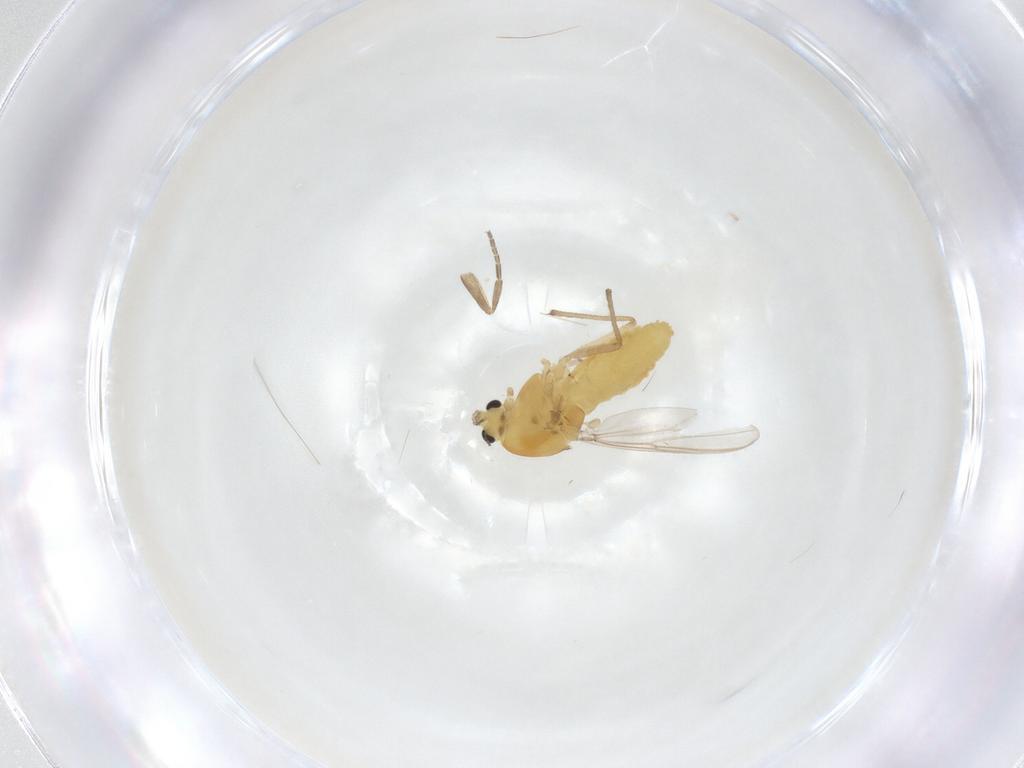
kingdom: Animalia
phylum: Arthropoda
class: Insecta
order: Diptera
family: Chironomidae
